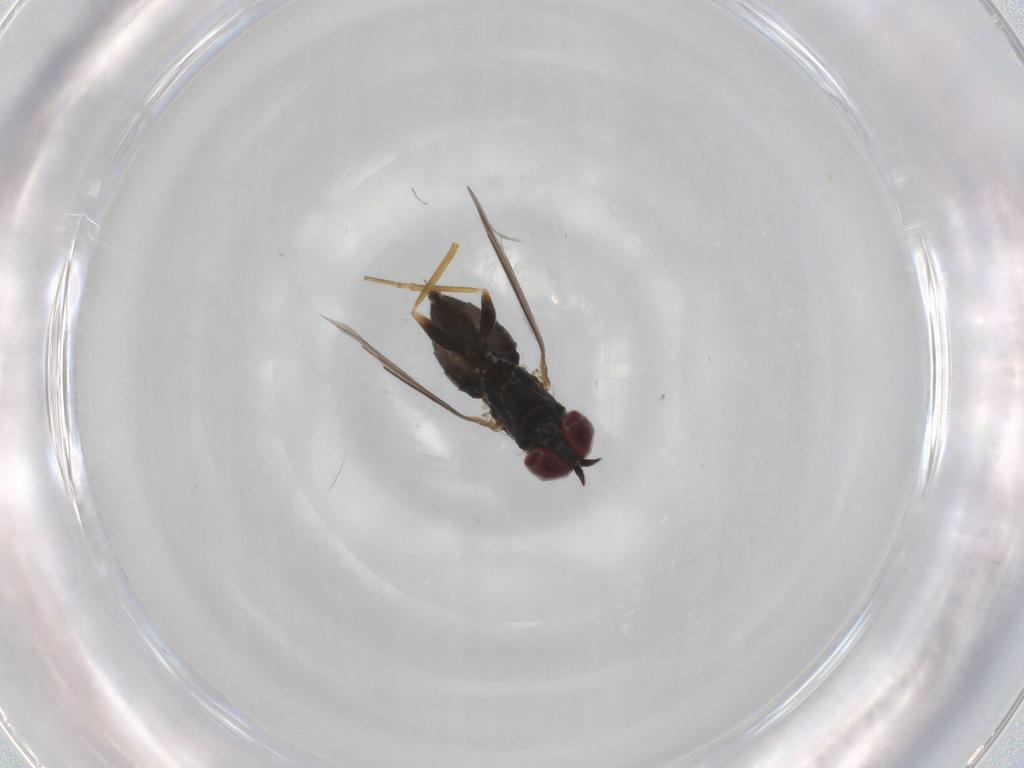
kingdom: Animalia
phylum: Arthropoda
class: Insecta
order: Diptera
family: Dolichopodidae
